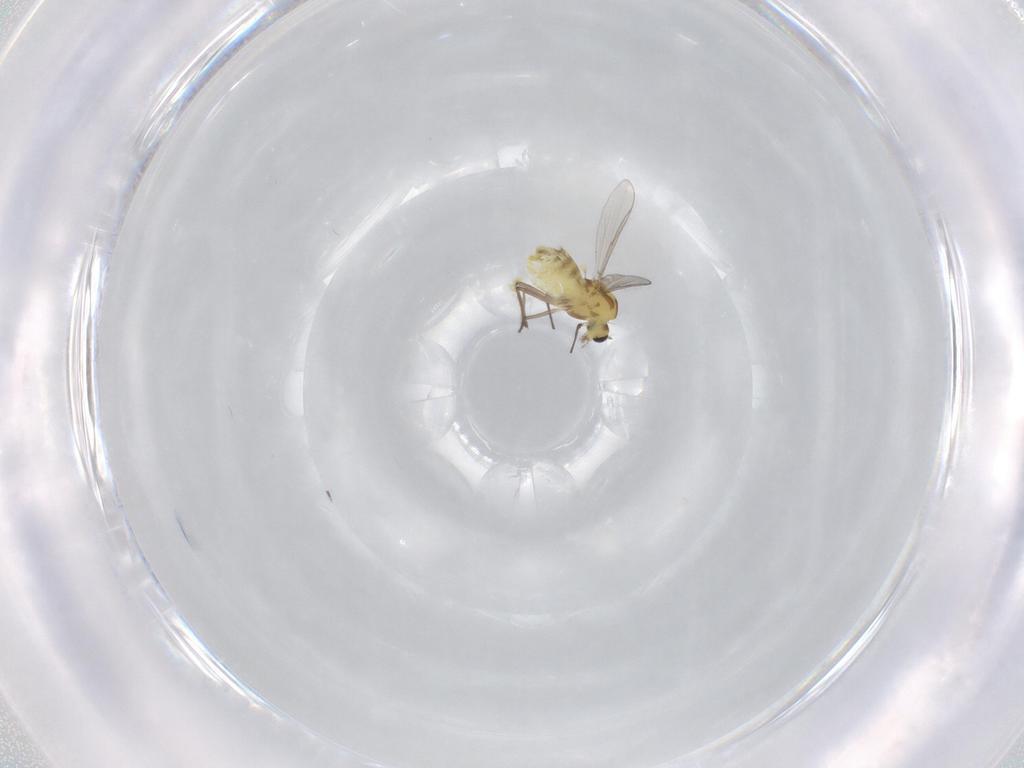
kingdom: Animalia
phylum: Arthropoda
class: Insecta
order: Diptera
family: Chironomidae
